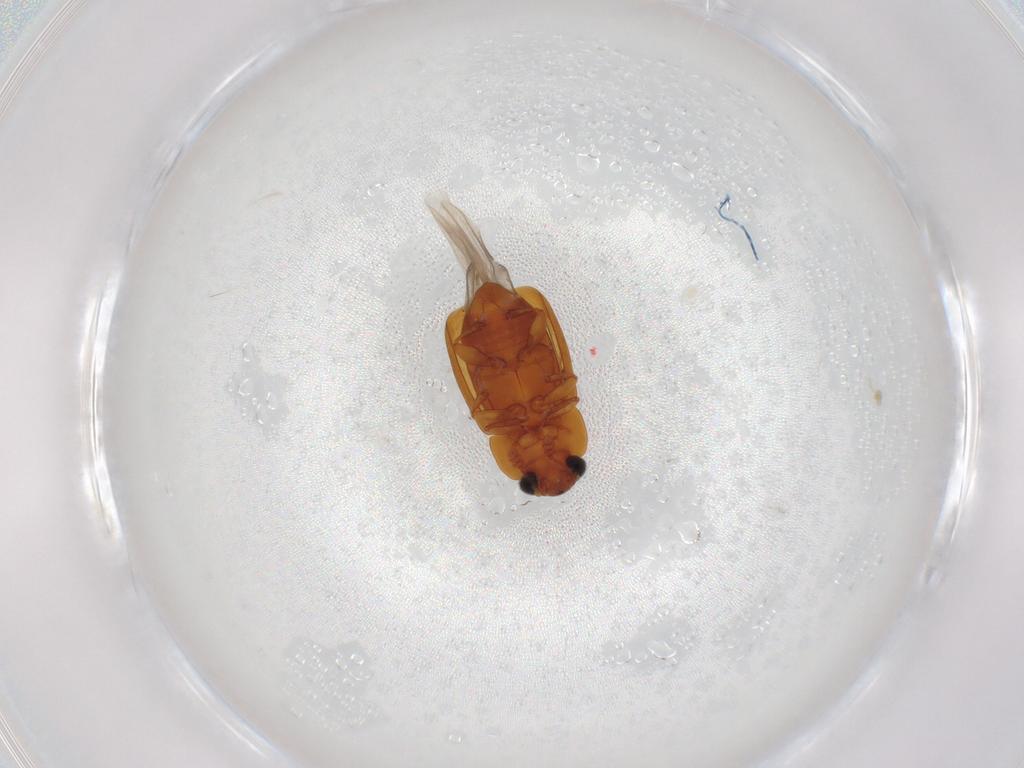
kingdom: Animalia
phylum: Arthropoda
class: Insecta
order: Coleoptera
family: Nitidulidae
